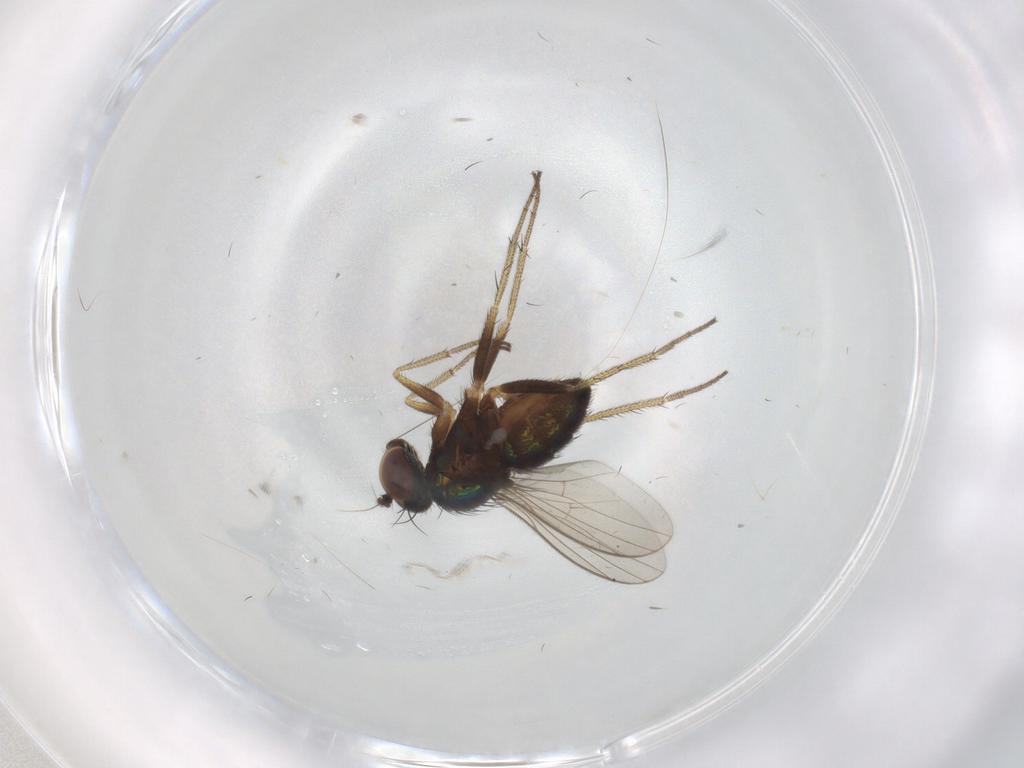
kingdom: Animalia
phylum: Arthropoda
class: Insecta
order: Diptera
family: Dolichopodidae
